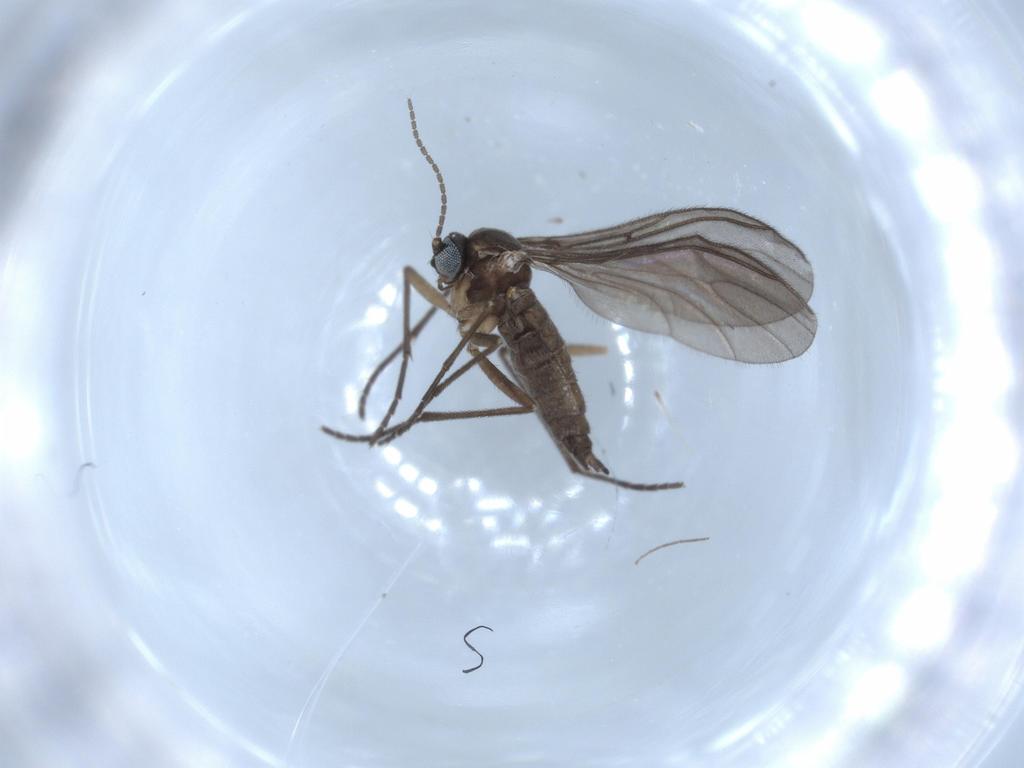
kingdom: Animalia
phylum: Arthropoda
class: Insecta
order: Diptera
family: Sciaridae
